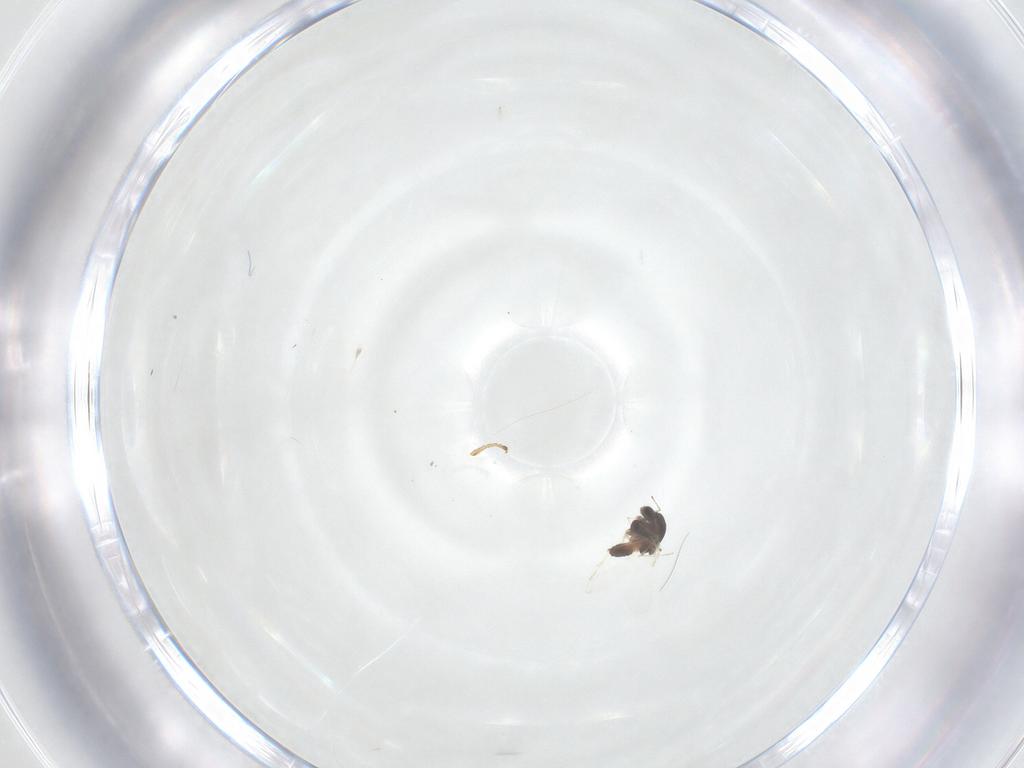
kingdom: Animalia
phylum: Arthropoda
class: Insecta
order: Diptera
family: Chironomidae
